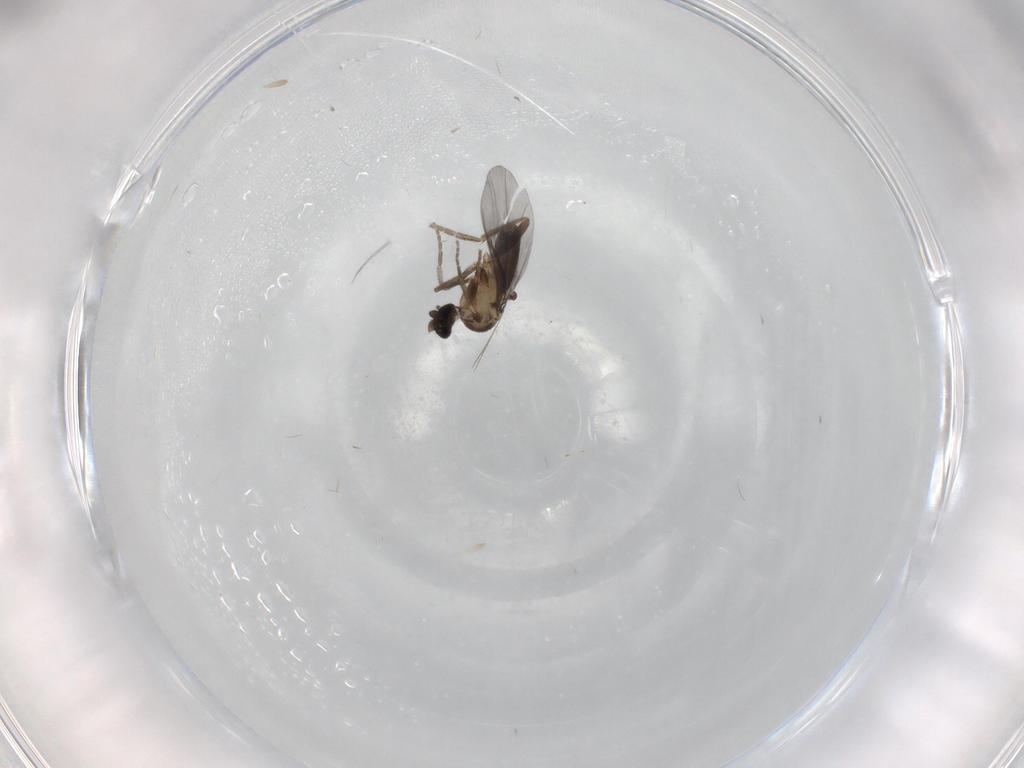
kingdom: Animalia
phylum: Arthropoda
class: Insecta
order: Diptera
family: Phoridae
